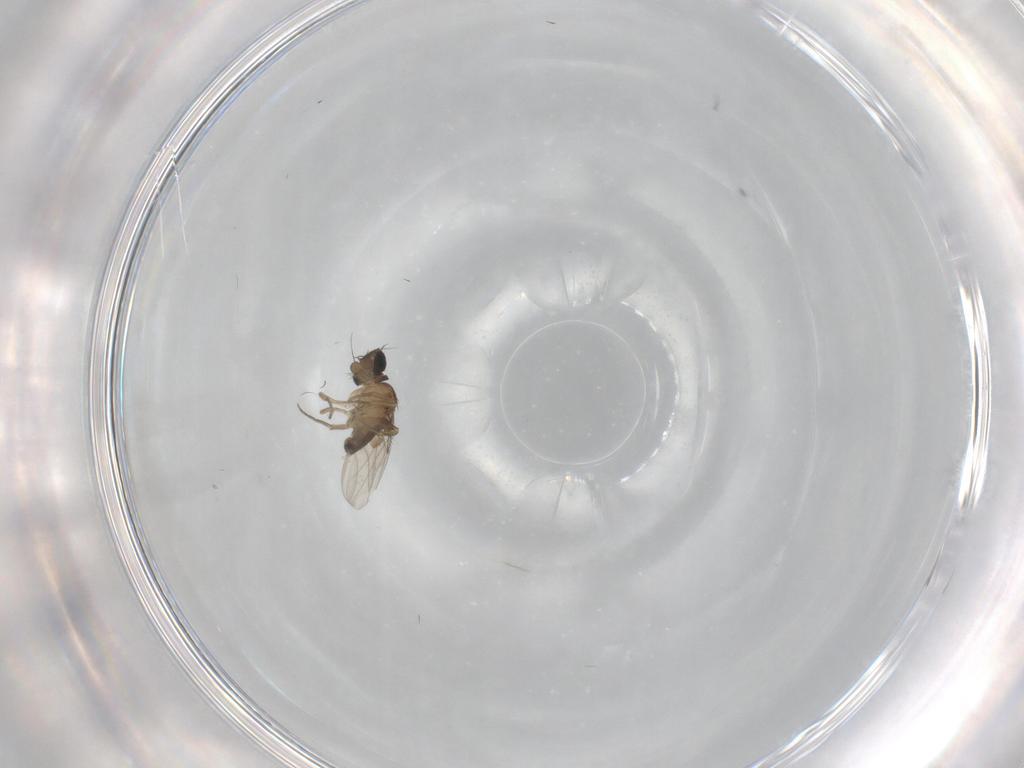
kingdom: Animalia
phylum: Arthropoda
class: Insecta
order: Diptera
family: Phoridae
